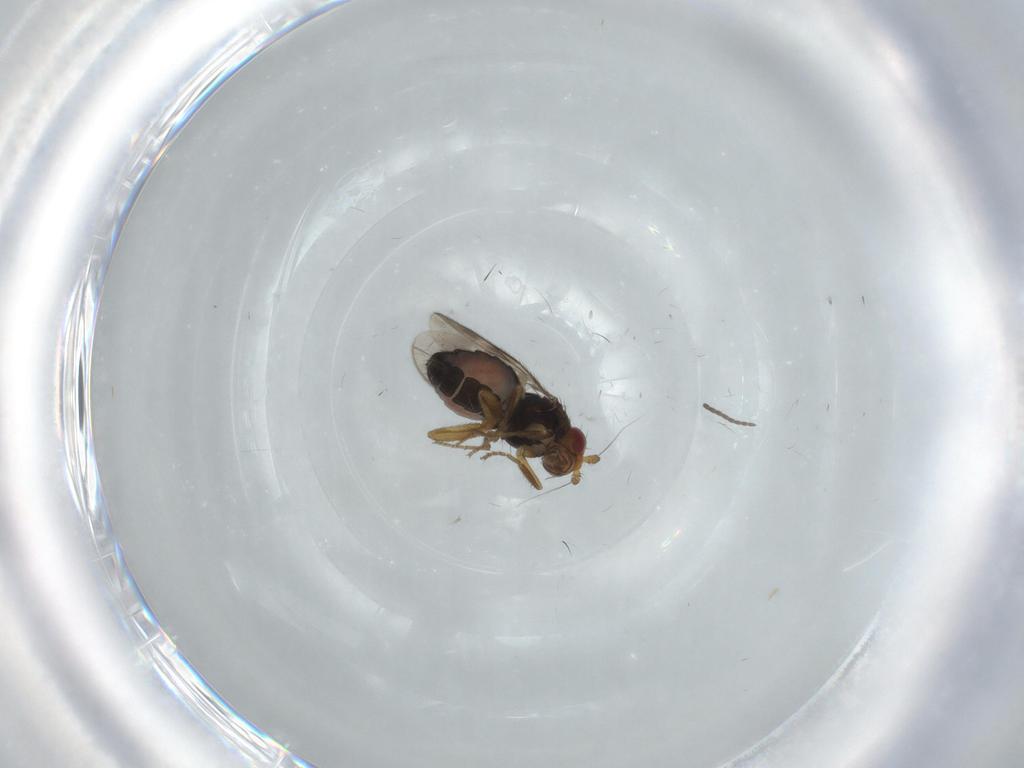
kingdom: Animalia
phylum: Arthropoda
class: Insecta
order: Diptera
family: Sphaeroceridae
